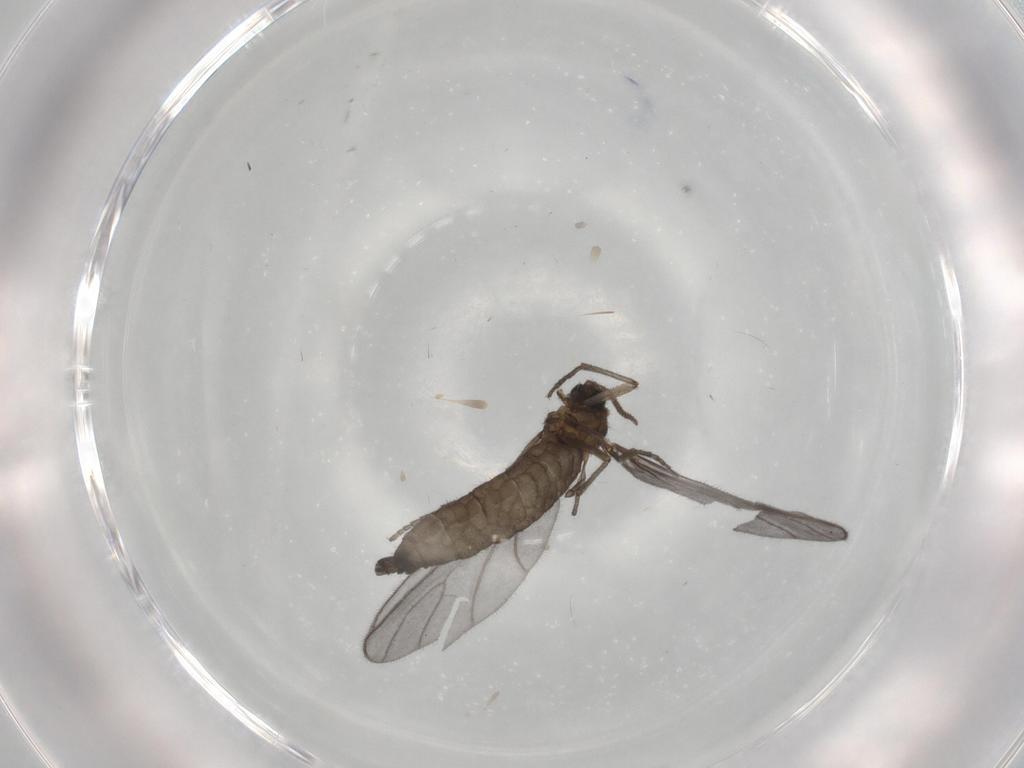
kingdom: Animalia
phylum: Arthropoda
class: Insecta
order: Diptera
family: Sciaridae
